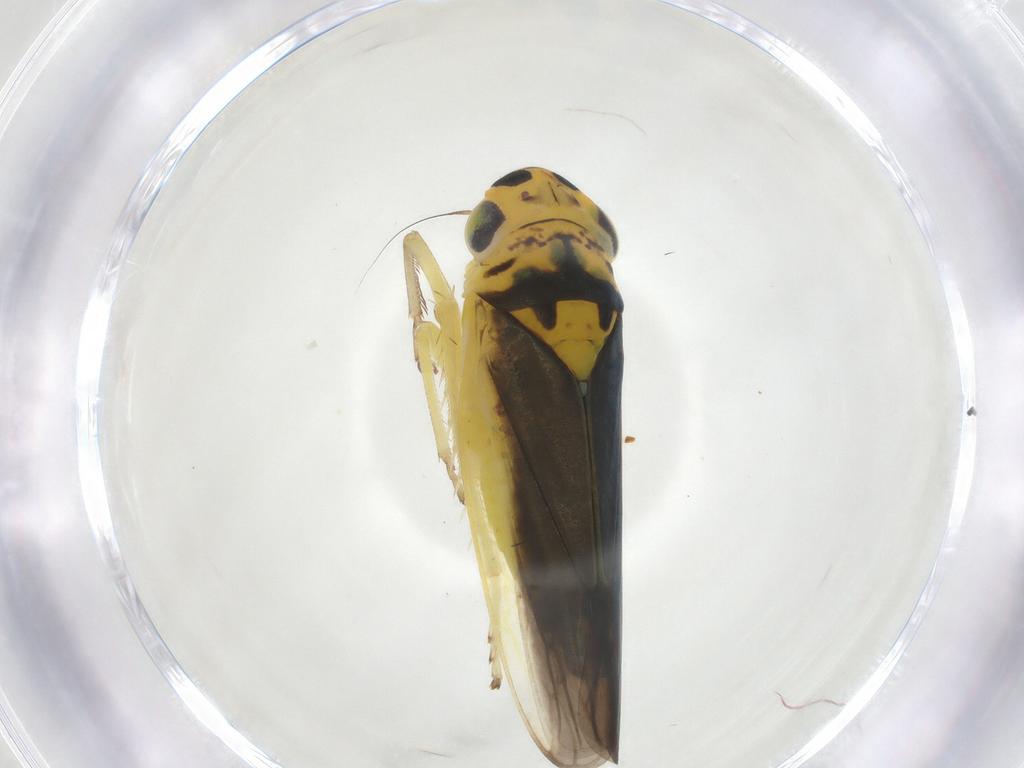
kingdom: Animalia
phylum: Arthropoda
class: Insecta
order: Hemiptera
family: Cicadellidae
